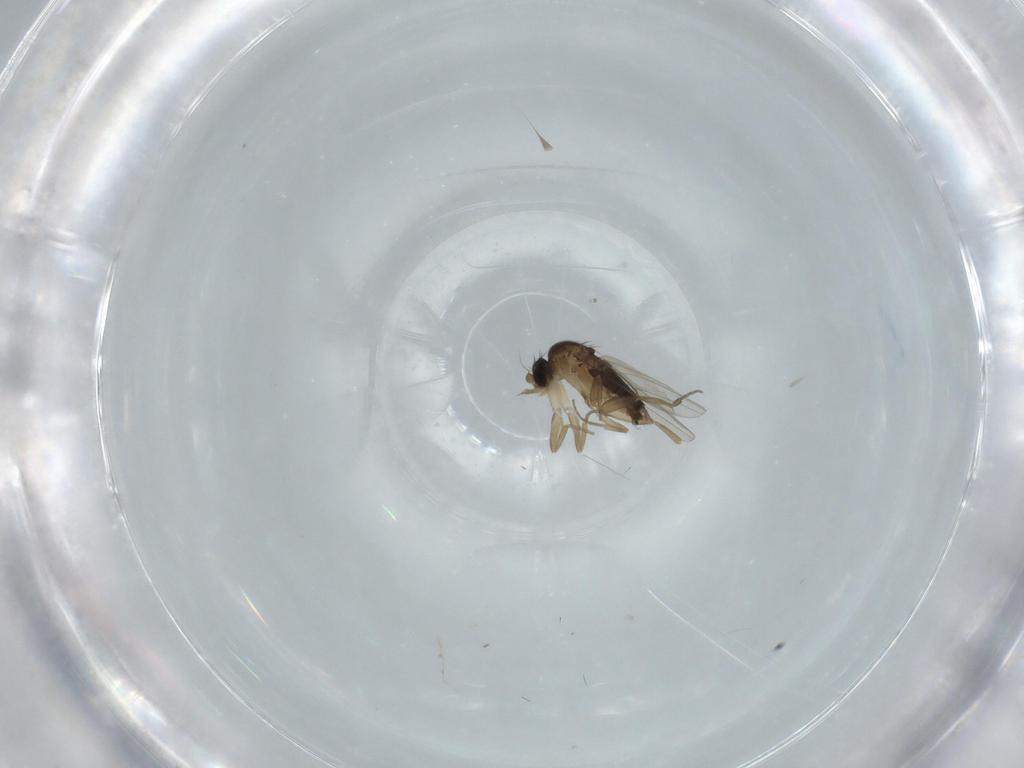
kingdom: Animalia
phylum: Arthropoda
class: Insecta
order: Diptera
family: Phoridae
